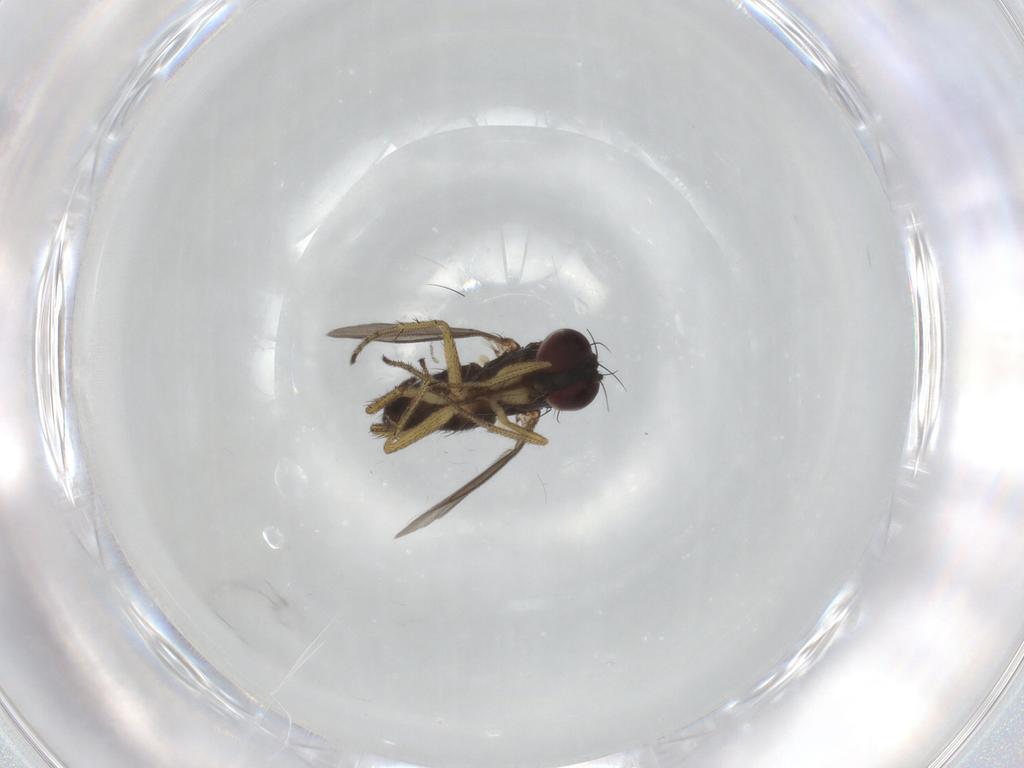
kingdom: Animalia
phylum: Arthropoda
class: Insecta
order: Diptera
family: Dolichopodidae
